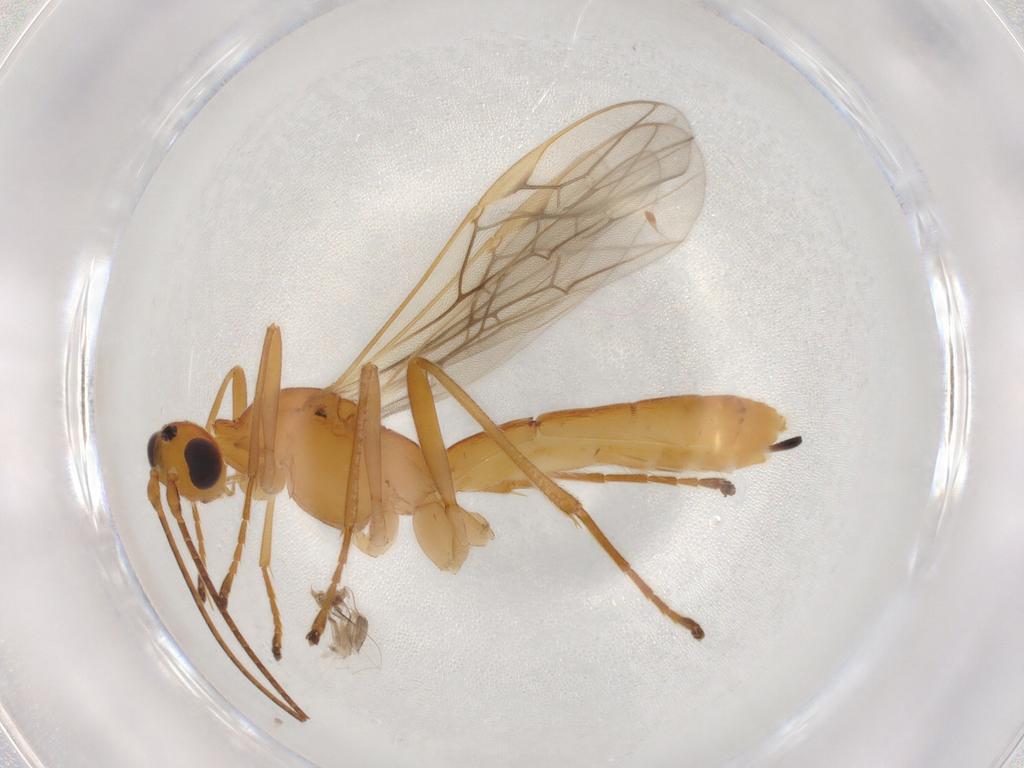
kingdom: Animalia
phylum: Arthropoda
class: Insecta
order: Hymenoptera
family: Braconidae
